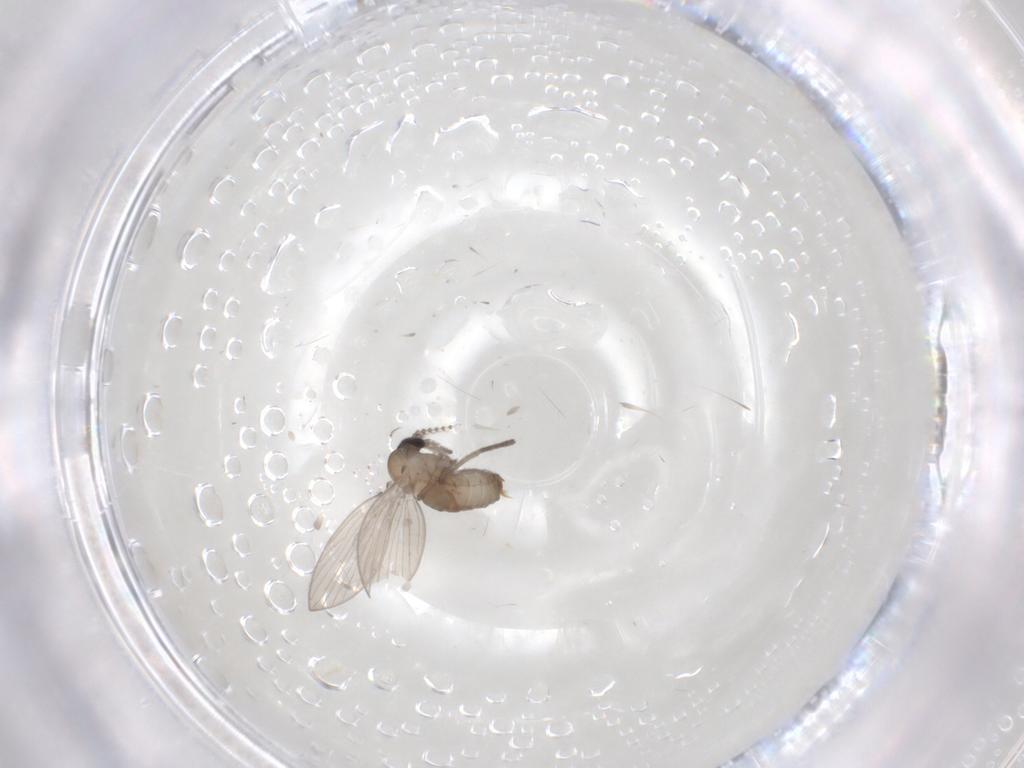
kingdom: Animalia
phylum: Arthropoda
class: Insecta
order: Diptera
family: Psychodidae
